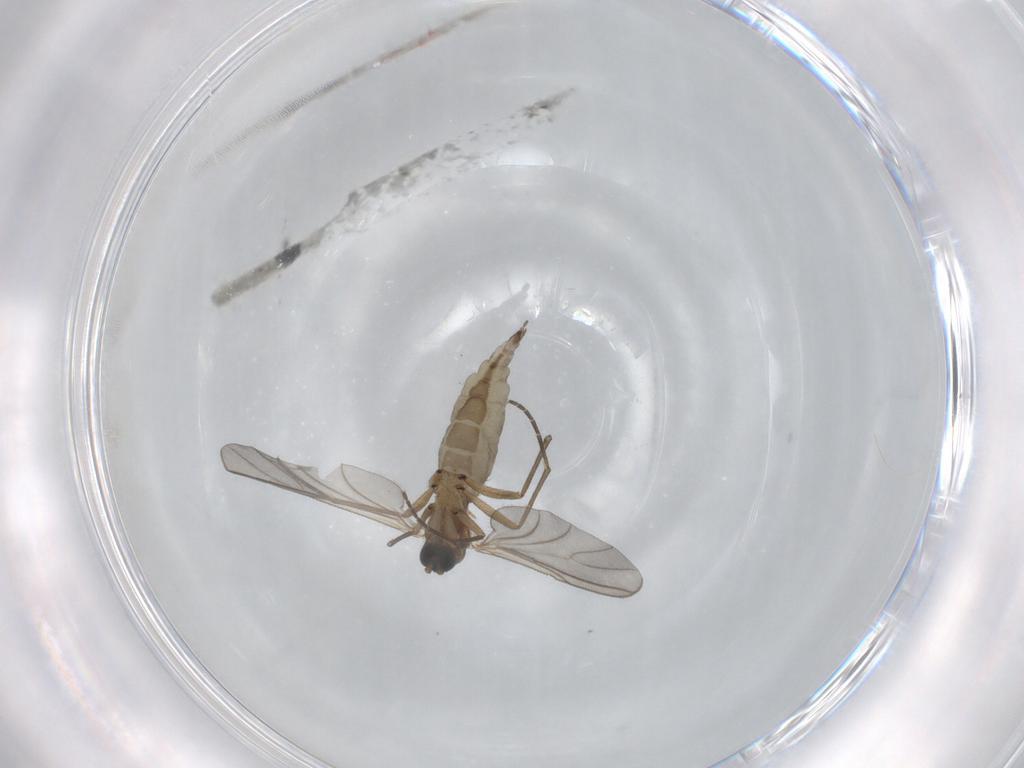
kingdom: Animalia
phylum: Arthropoda
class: Insecta
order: Diptera
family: Sciaridae
